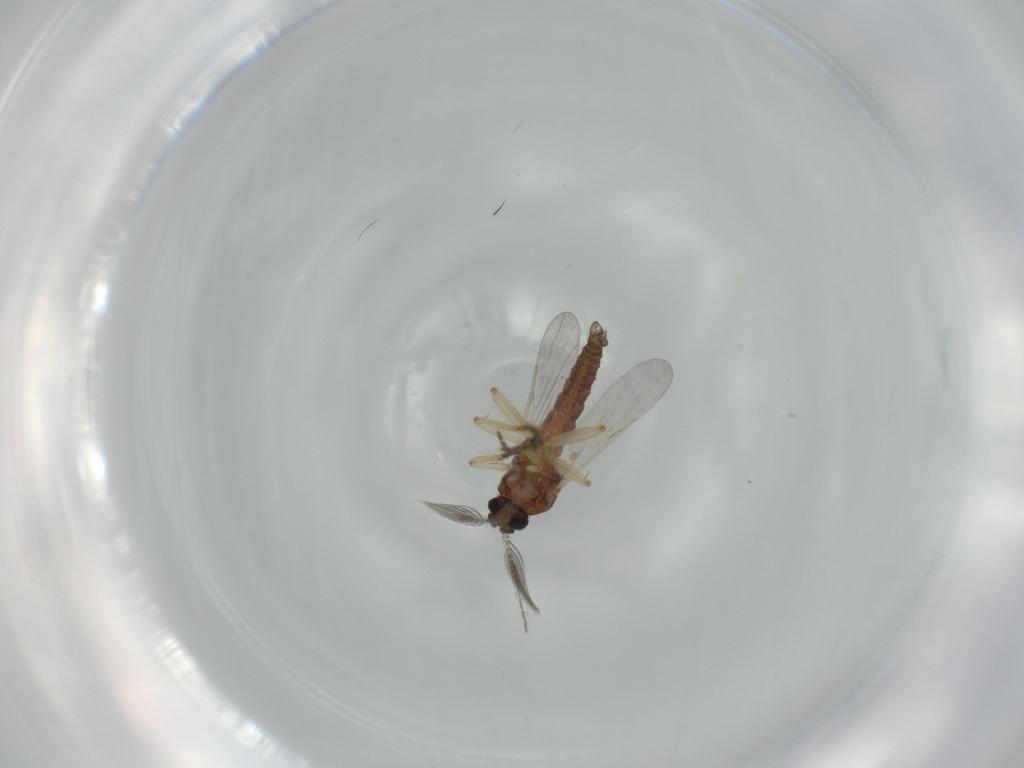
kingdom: Animalia
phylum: Arthropoda
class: Insecta
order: Diptera
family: Ceratopogonidae
